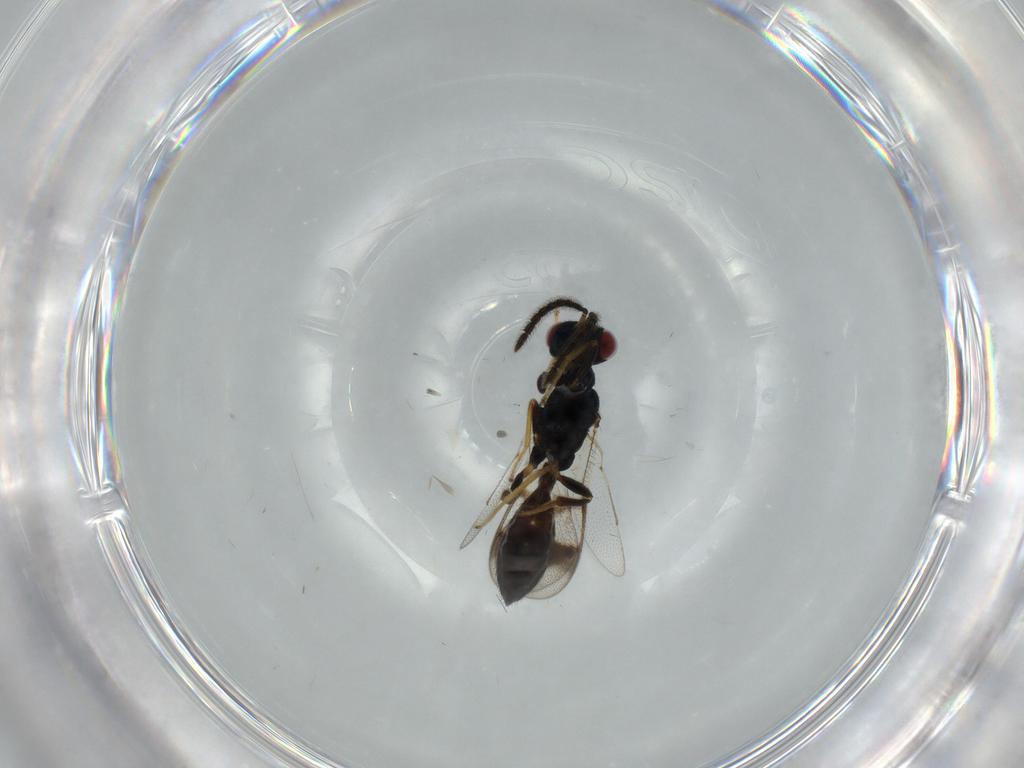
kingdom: Animalia
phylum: Arthropoda
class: Insecta
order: Hymenoptera
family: Pteromalidae
